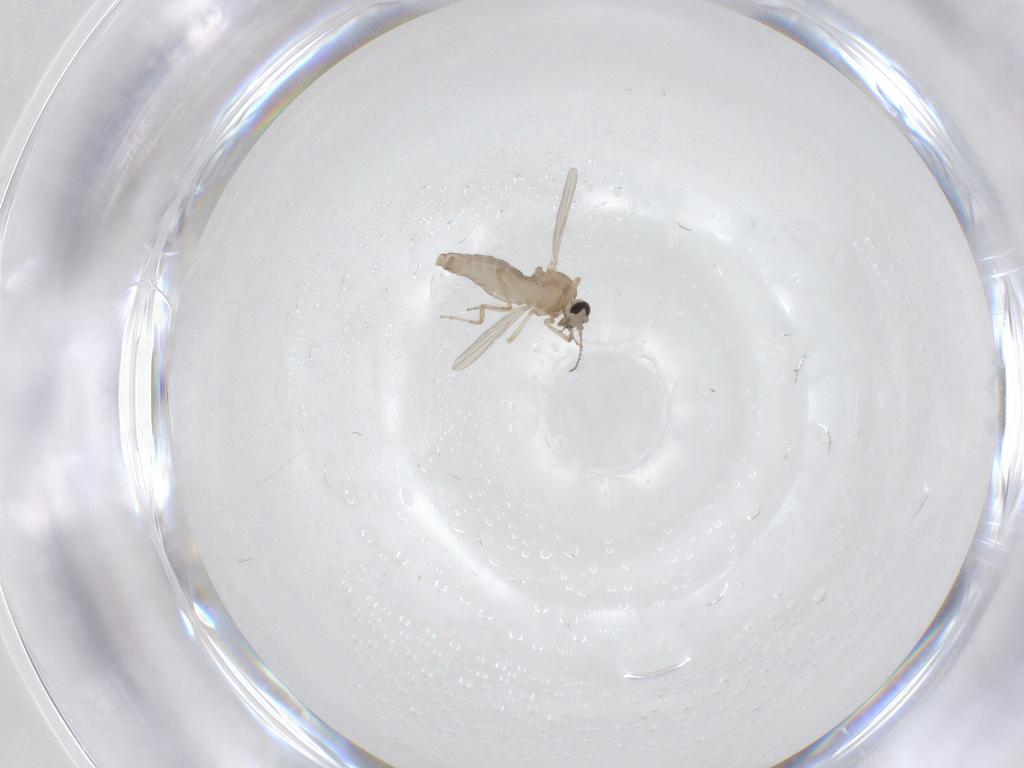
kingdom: Animalia
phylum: Arthropoda
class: Insecta
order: Diptera
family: Ceratopogonidae
